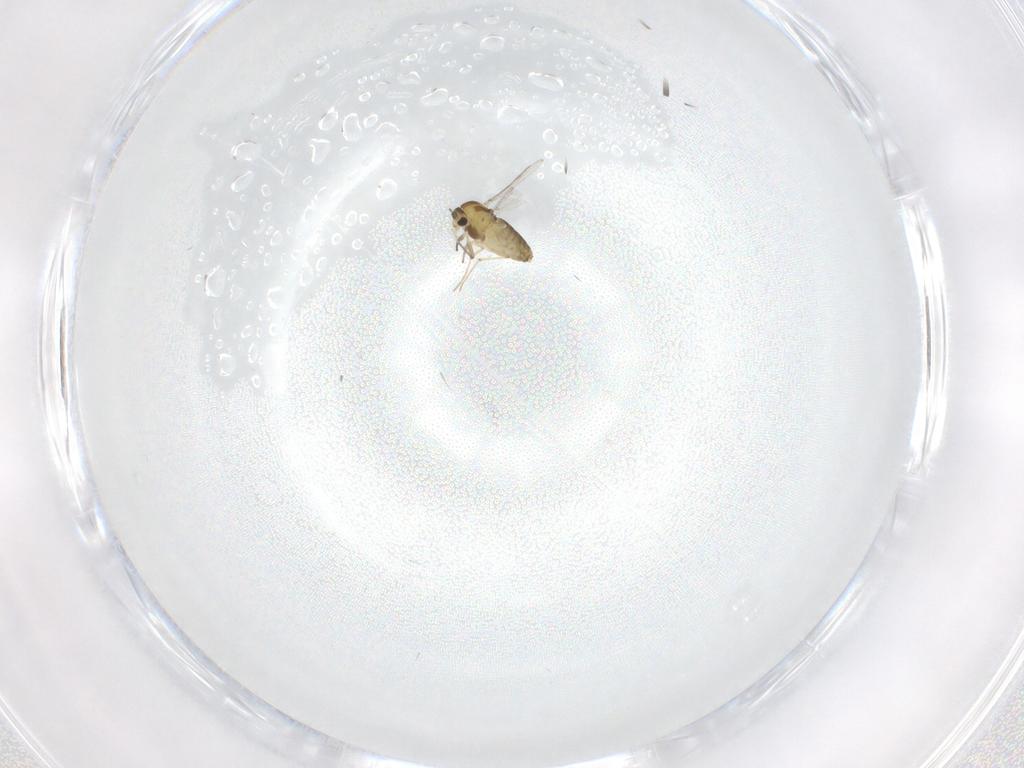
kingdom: Animalia
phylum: Arthropoda
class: Insecta
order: Diptera
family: Chironomidae
